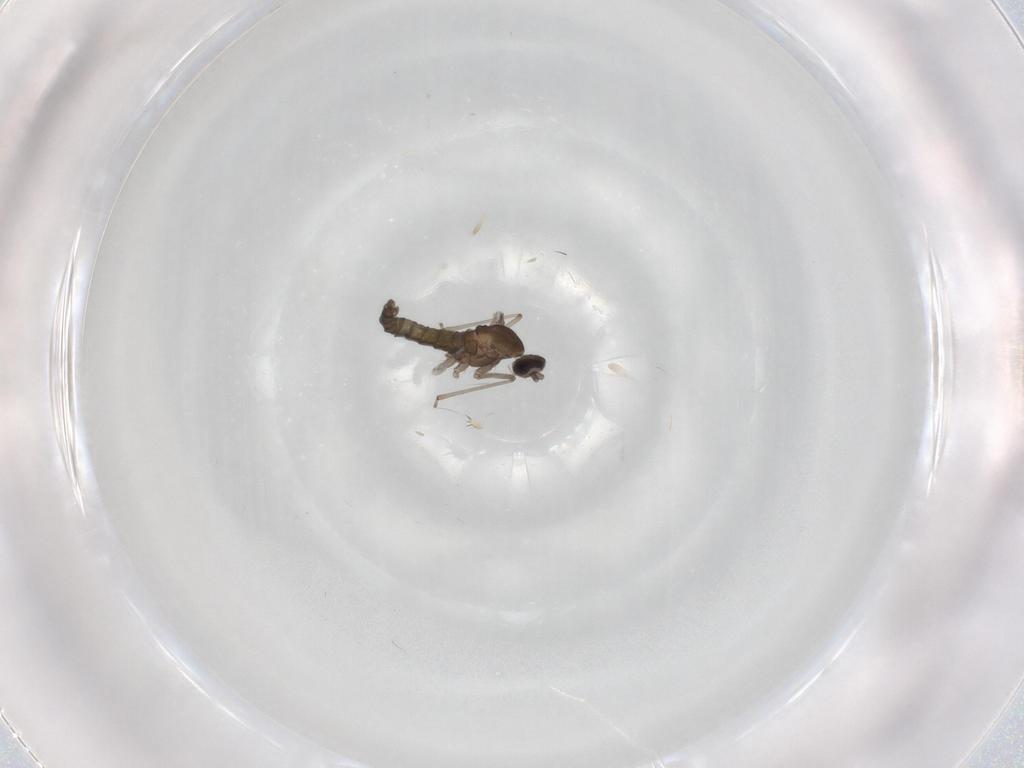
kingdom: Animalia
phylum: Arthropoda
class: Insecta
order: Diptera
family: Cecidomyiidae
